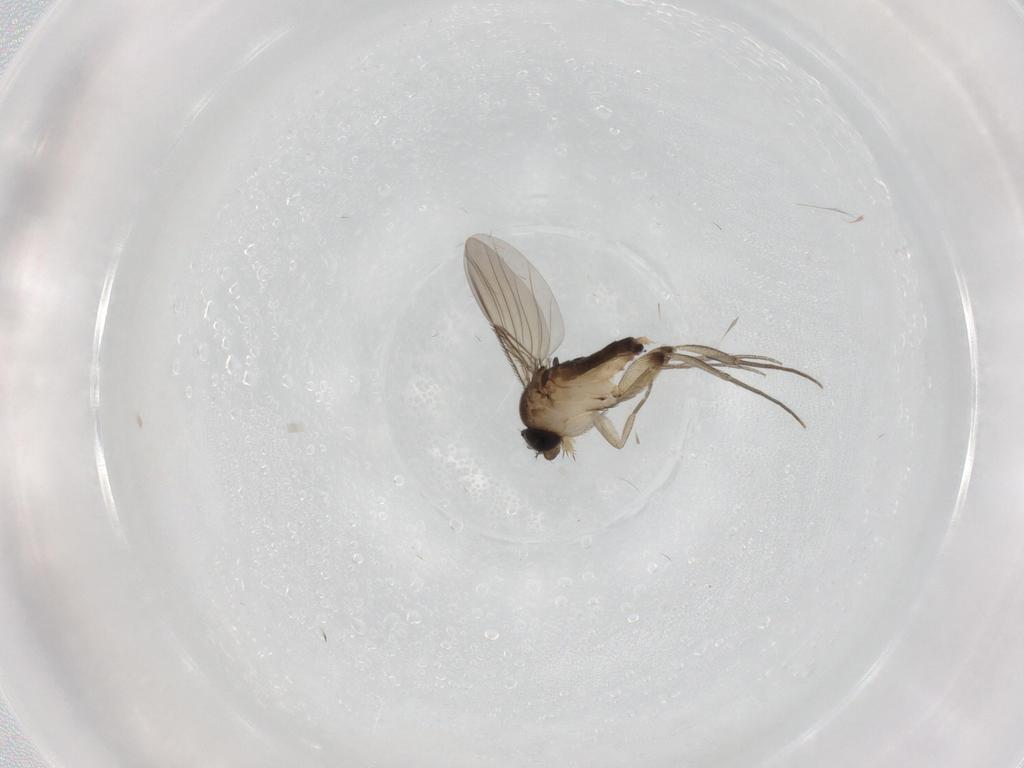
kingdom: Animalia
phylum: Arthropoda
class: Insecta
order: Diptera
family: Phoridae
